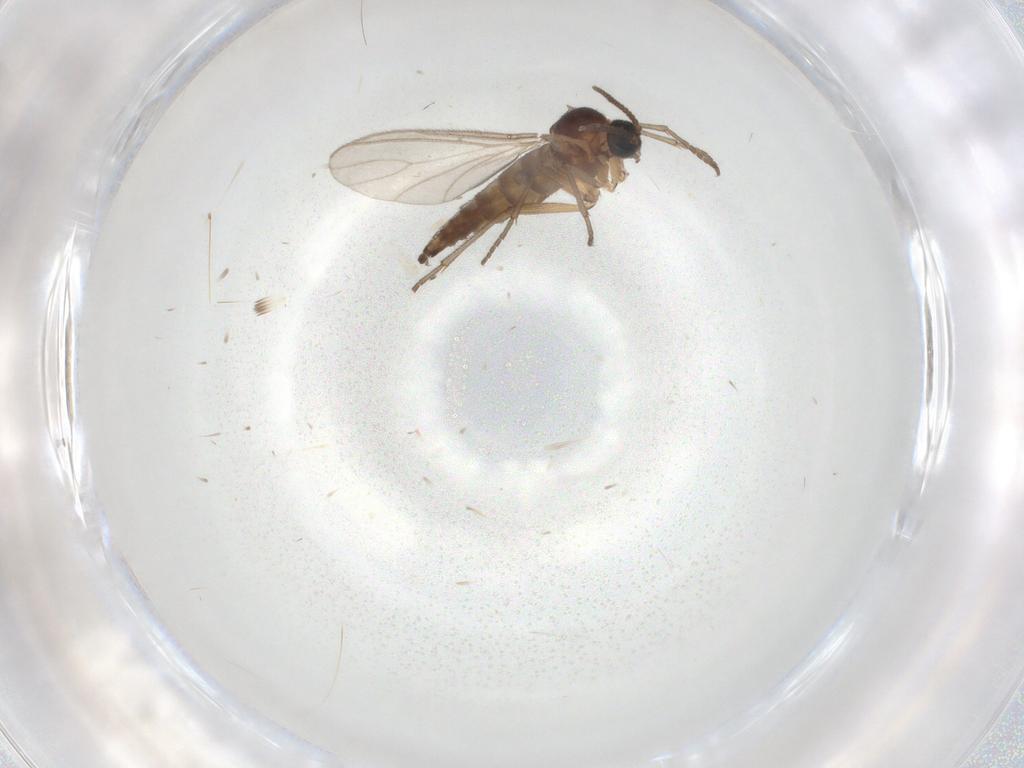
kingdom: Animalia
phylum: Arthropoda
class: Insecta
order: Diptera
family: Sciaridae
